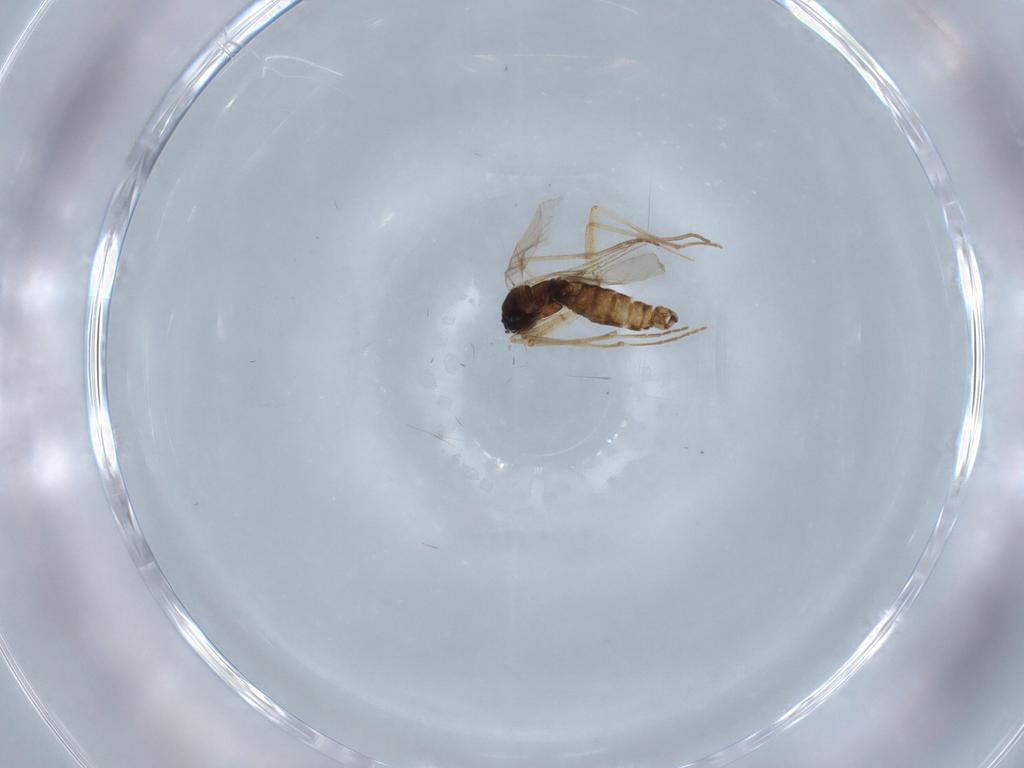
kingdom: Animalia
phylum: Arthropoda
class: Insecta
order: Diptera
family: Sciaridae
